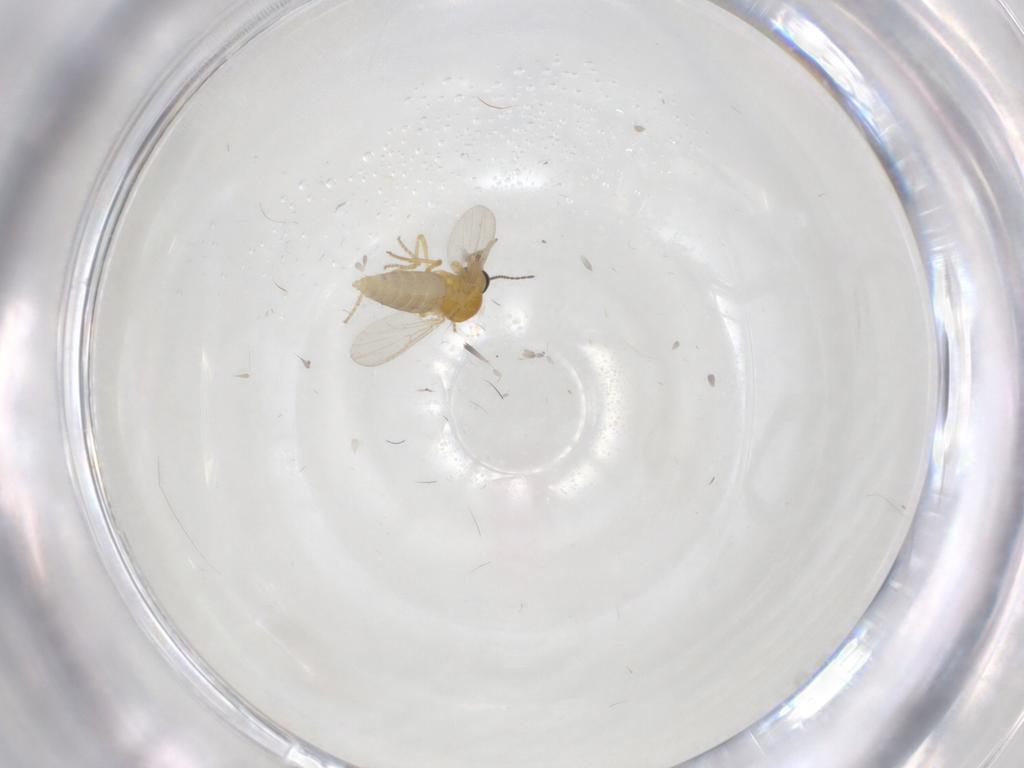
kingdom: Animalia
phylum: Arthropoda
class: Insecta
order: Diptera
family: Ceratopogonidae
